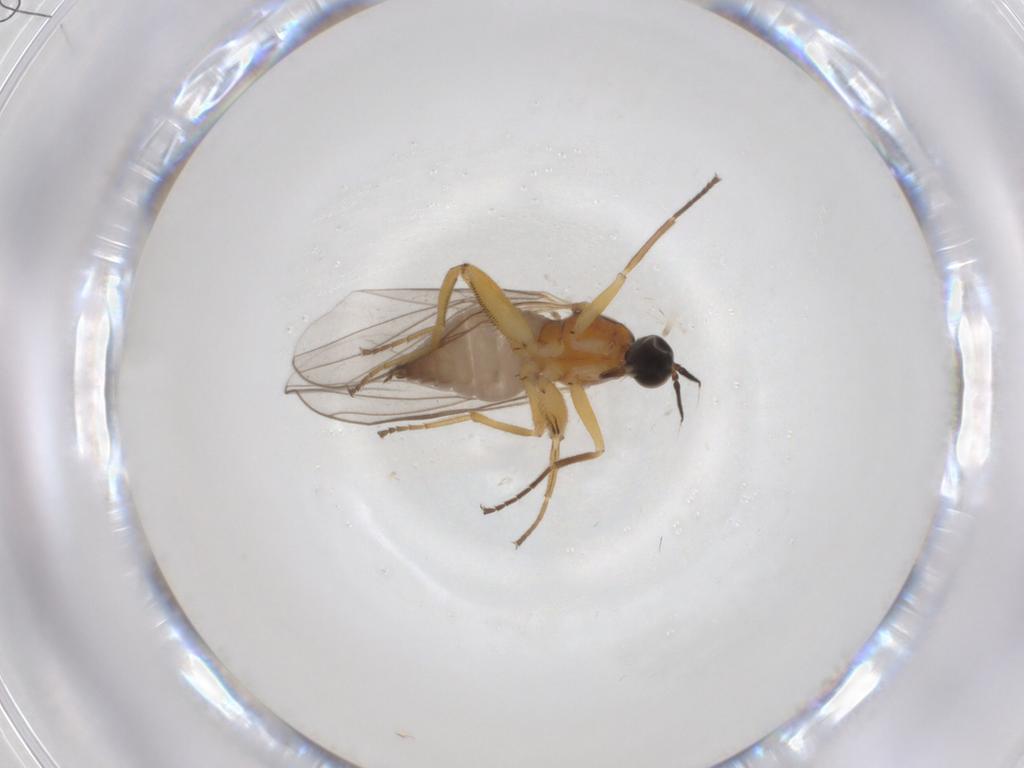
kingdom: Animalia
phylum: Arthropoda
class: Insecta
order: Diptera
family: Hybotidae
